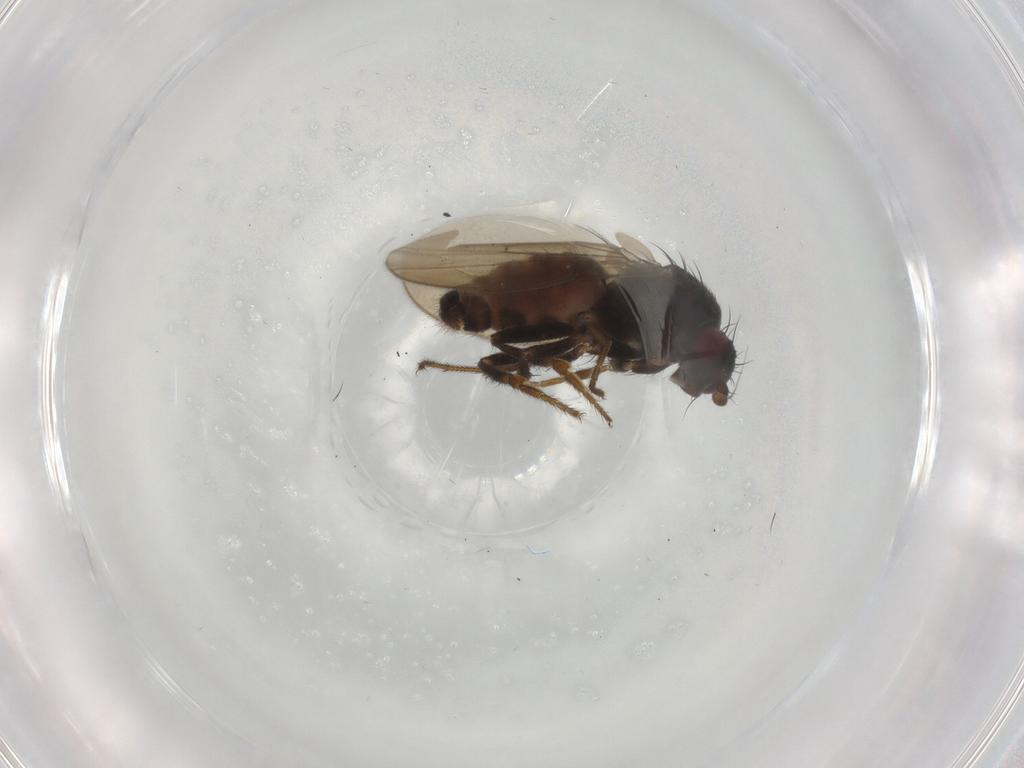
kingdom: Animalia
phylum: Arthropoda
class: Insecta
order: Diptera
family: Sphaeroceridae
